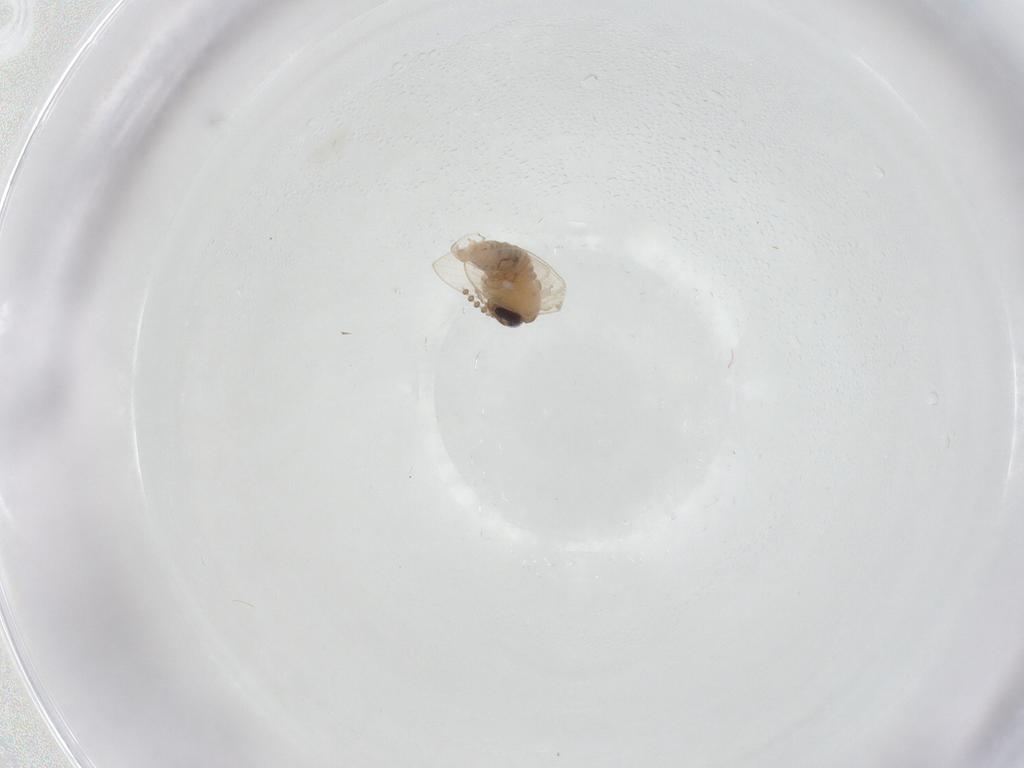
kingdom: Animalia
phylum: Arthropoda
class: Insecta
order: Diptera
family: Psychodidae
